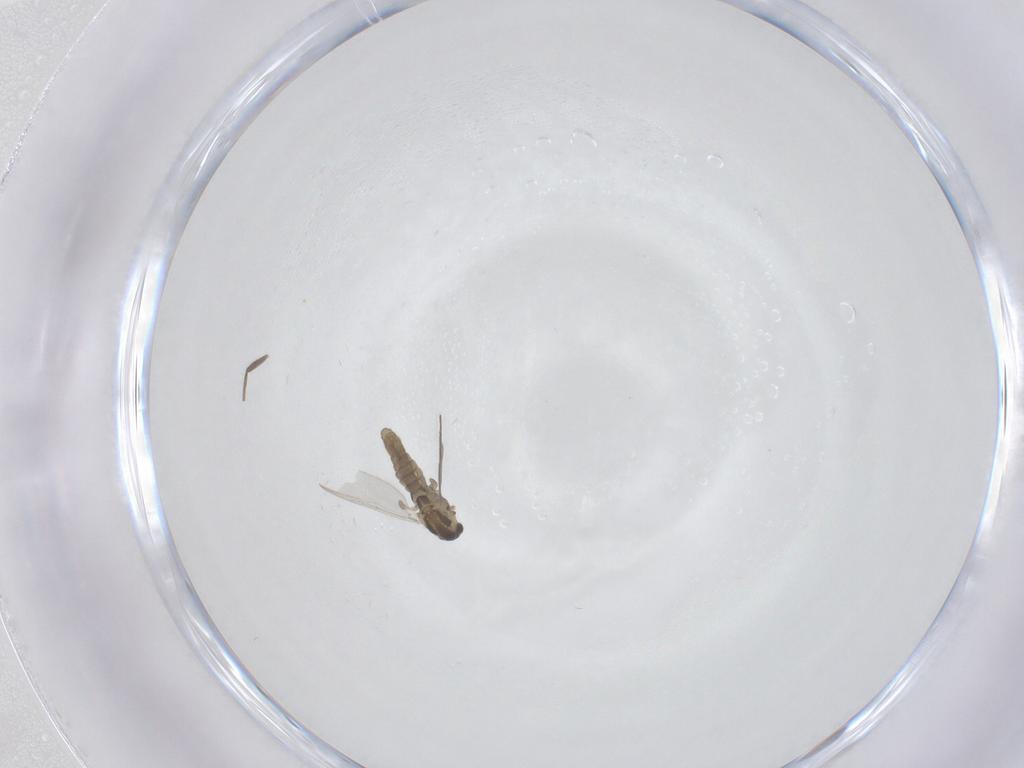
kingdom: Animalia
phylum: Arthropoda
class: Insecta
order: Diptera
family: Chironomidae
